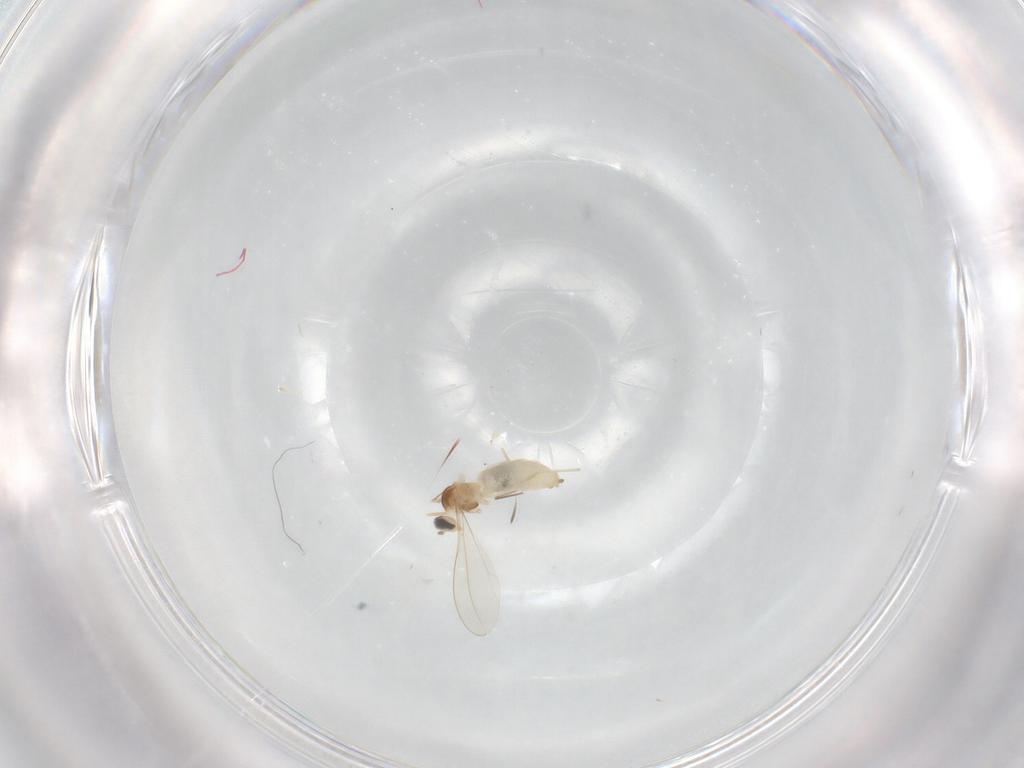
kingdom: Animalia
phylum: Arthropoda
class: Insecta
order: Diptera
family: Cecidomyiidae
